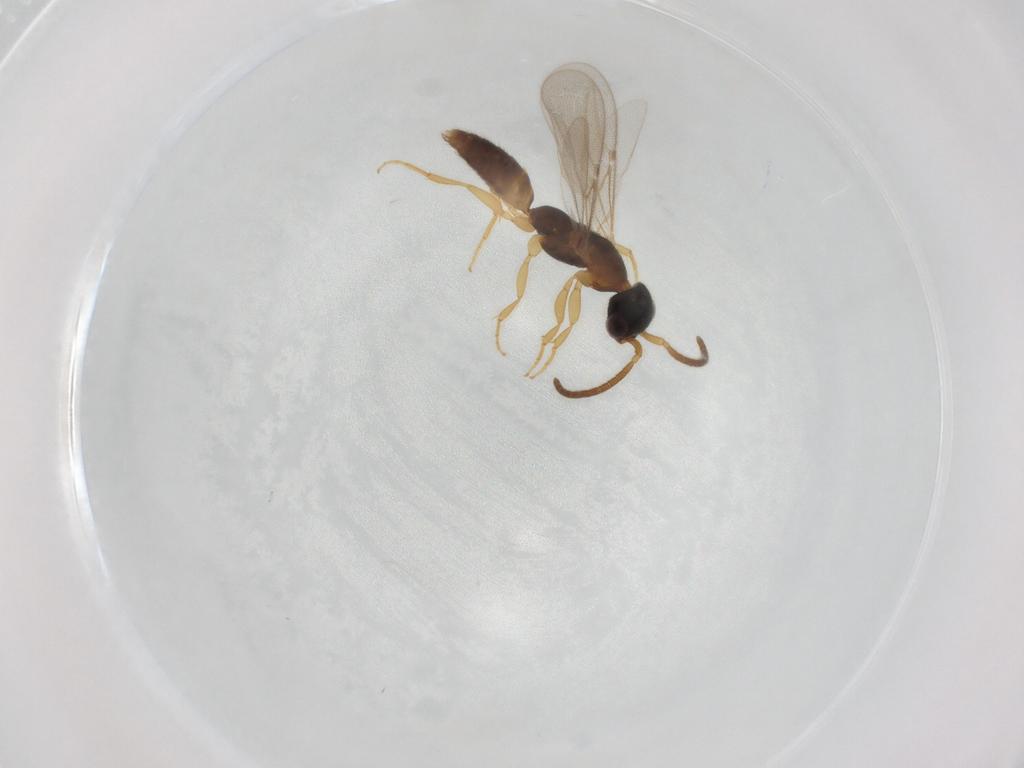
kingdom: Animalia
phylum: Arthropoda
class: Insecta
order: Hymenoptera
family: Bethylidae
